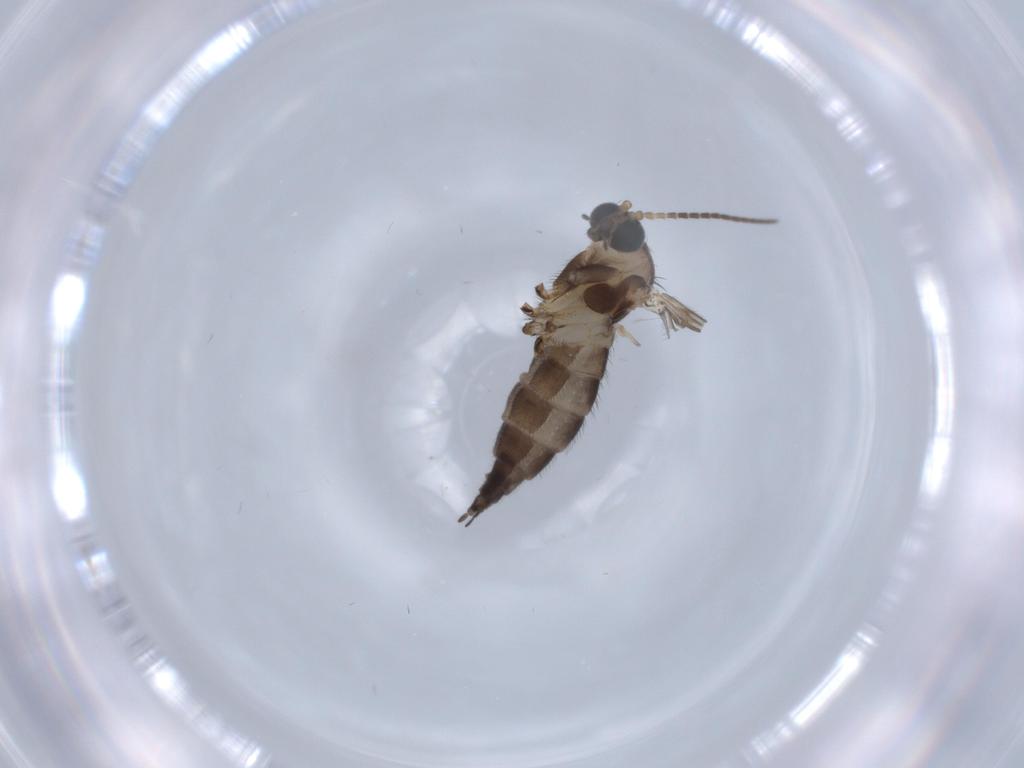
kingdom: Animalia
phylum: Arthropoda
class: Insecta
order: Diptera
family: Sciaridae
